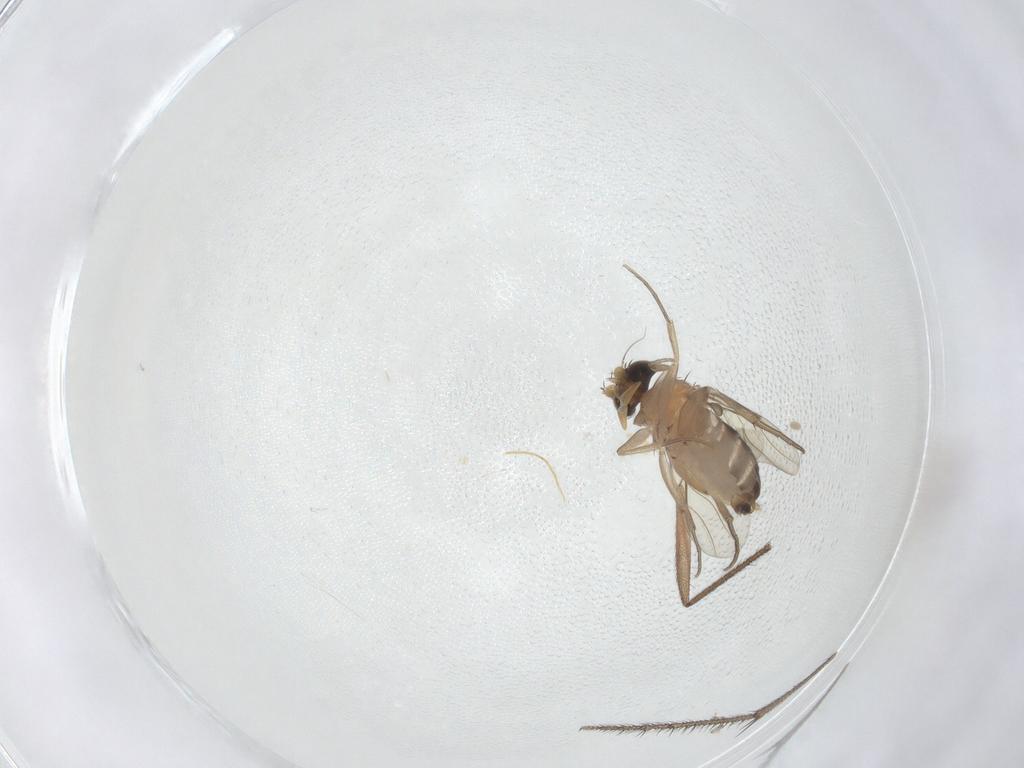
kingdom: Animalia
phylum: Arthropoda
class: Insecta
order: Diptera
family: Phoridae
